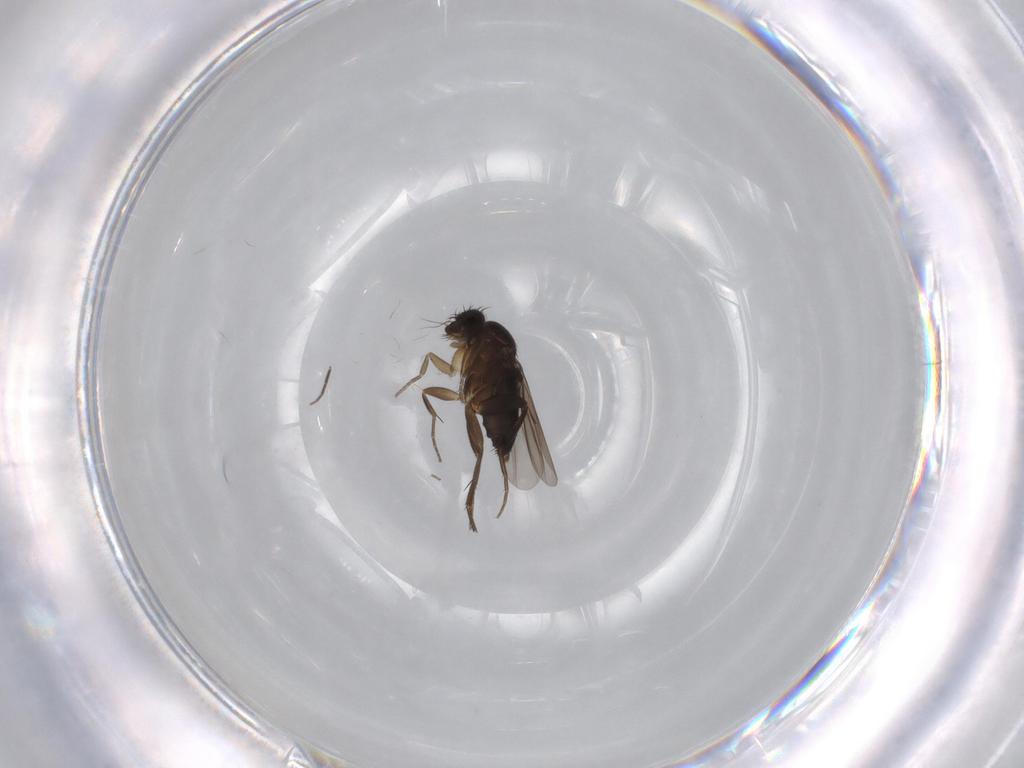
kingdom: Animalia
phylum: Arthropoda
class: Insecta
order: Diptera
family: Phoridae
